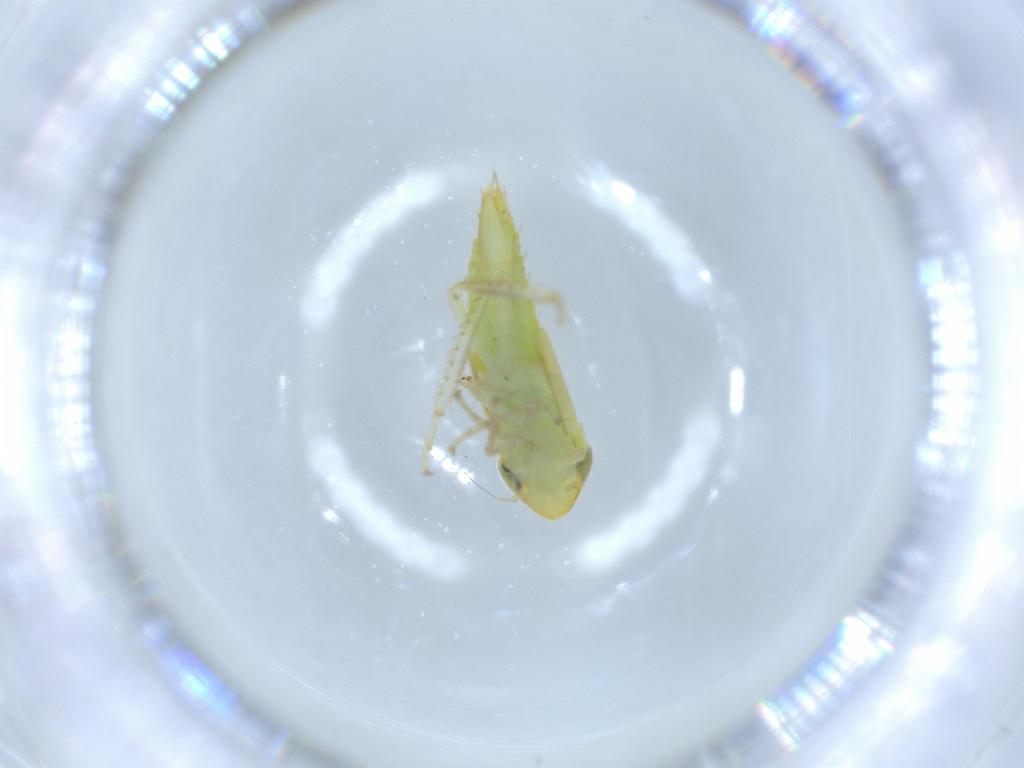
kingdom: Animalia
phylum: Arthropoda
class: Insecta
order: Hemiptera
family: Cicadellidae
